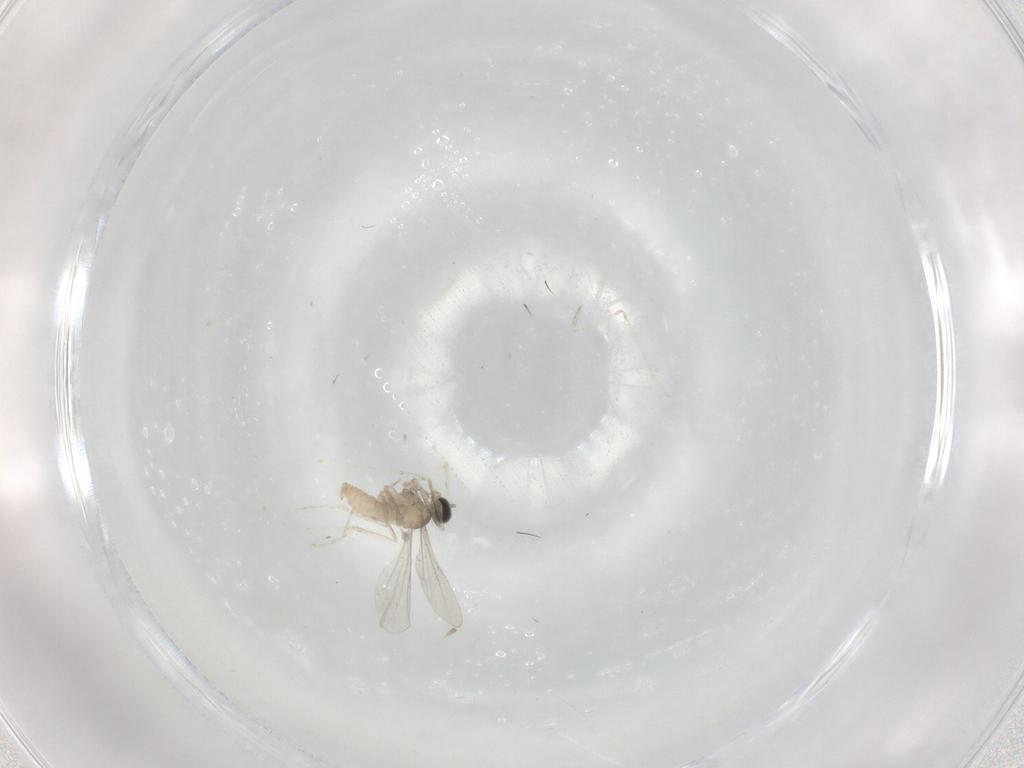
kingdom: Animalia
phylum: Arthropoda
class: Insecta
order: Diptera
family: Cecidomyiidae
